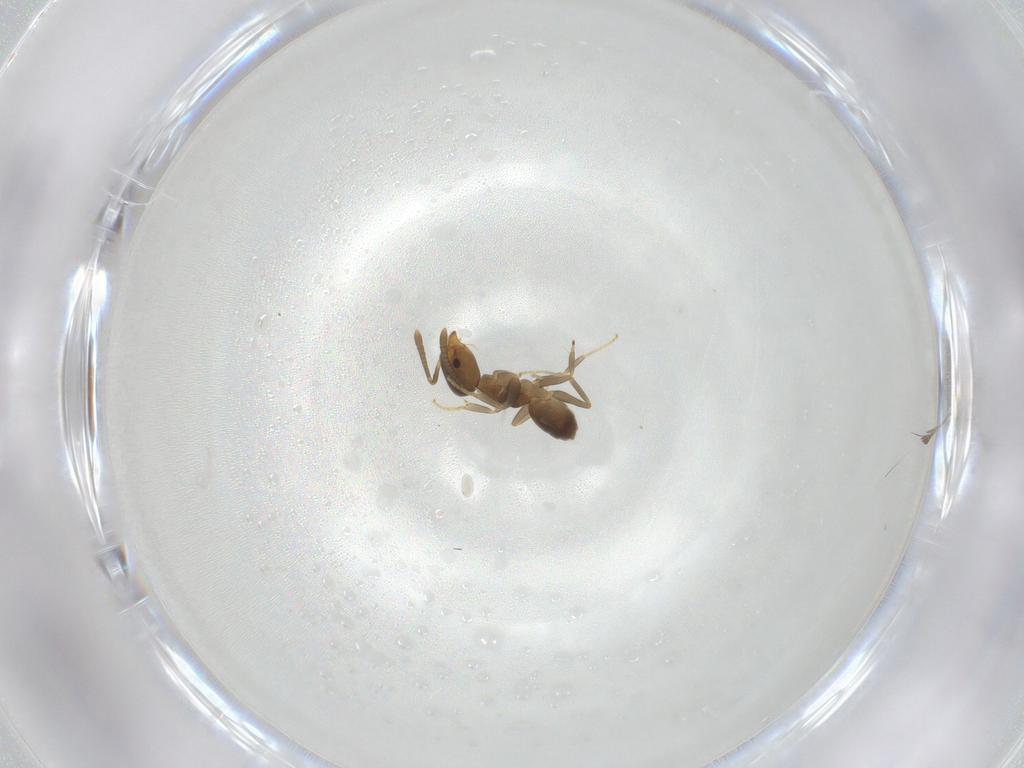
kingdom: Animalia
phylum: Arthropoda
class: Insecta
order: Hymenoptera
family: Formicidae
